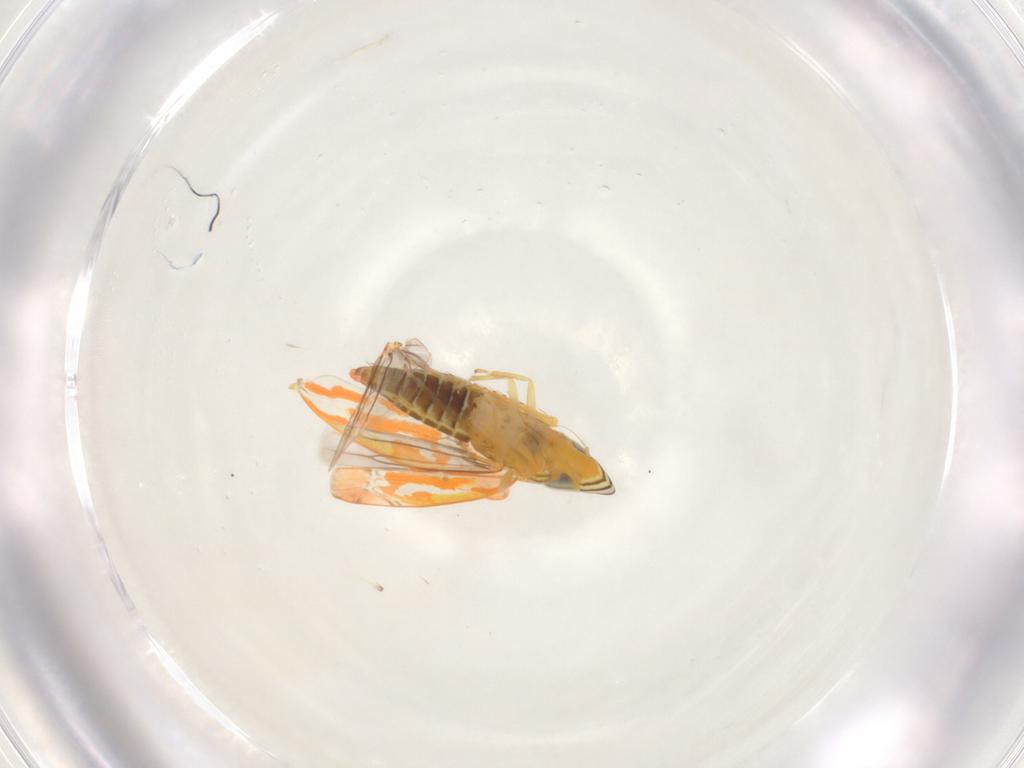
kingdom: Animalia
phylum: Arthropoda
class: Insecta
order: Hemiptera
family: Cicadellidae
